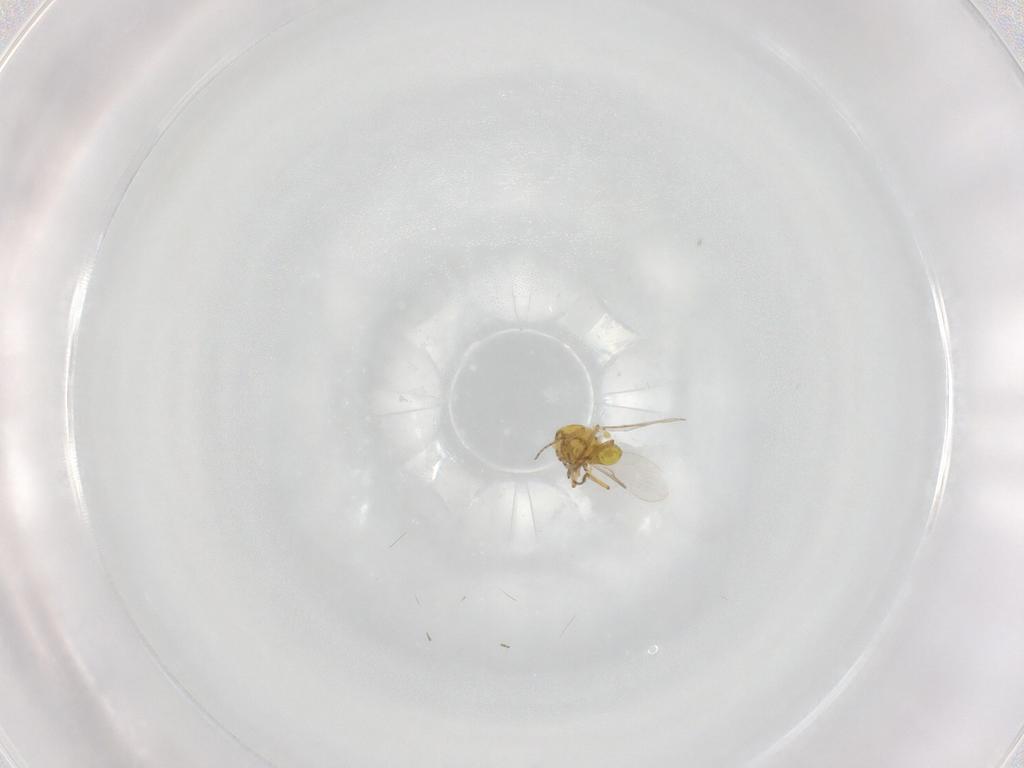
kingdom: Animalia
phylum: Arthropoda
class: Insecta
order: Diptera
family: Ceratopogonidae
